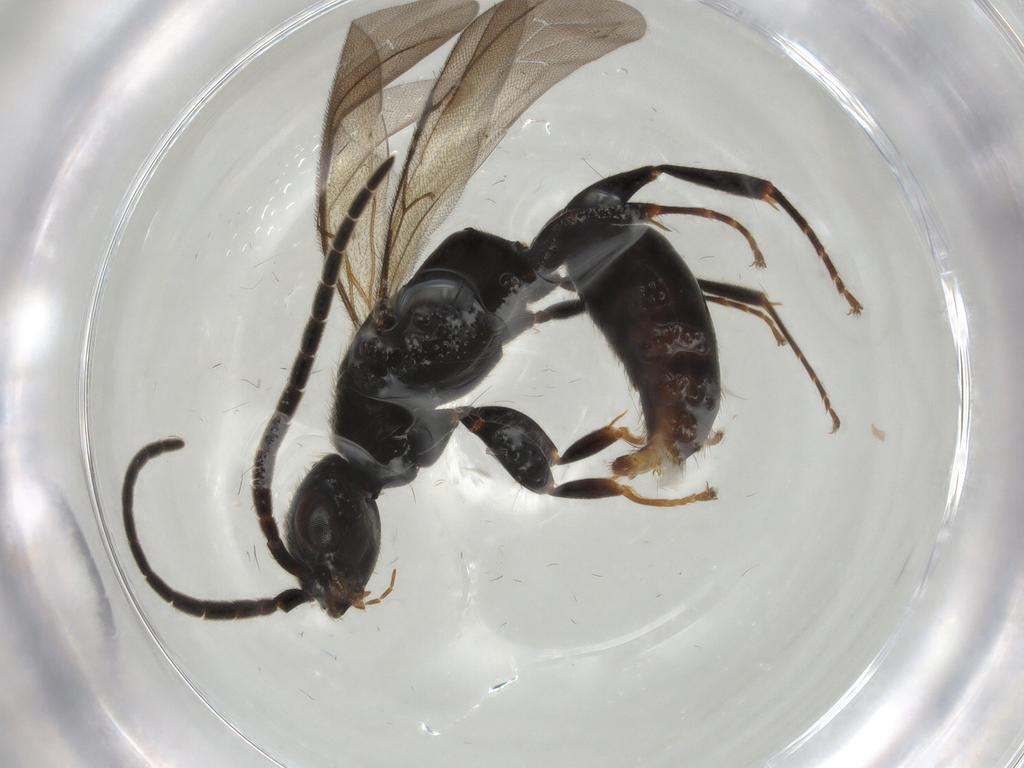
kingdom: Animalia
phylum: Arthropoda
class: Insecta
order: Hymenoptera
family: Bethylidae
